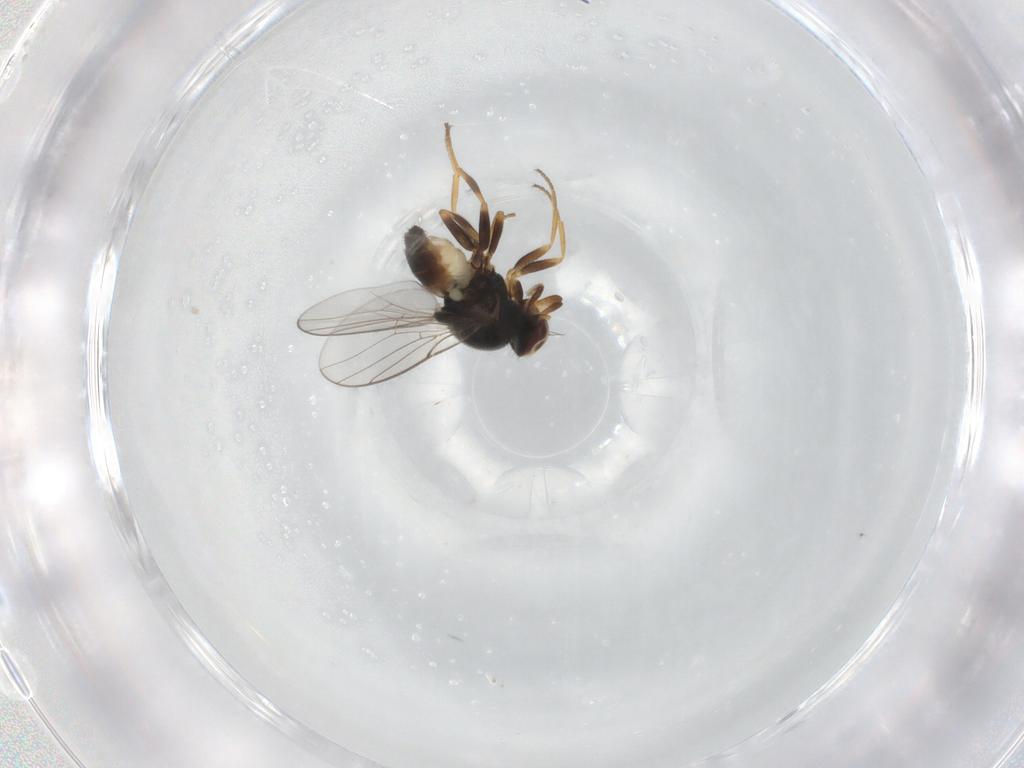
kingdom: Animalia
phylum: Arthropoda
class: Insecta
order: Diptera
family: Chloropidae
